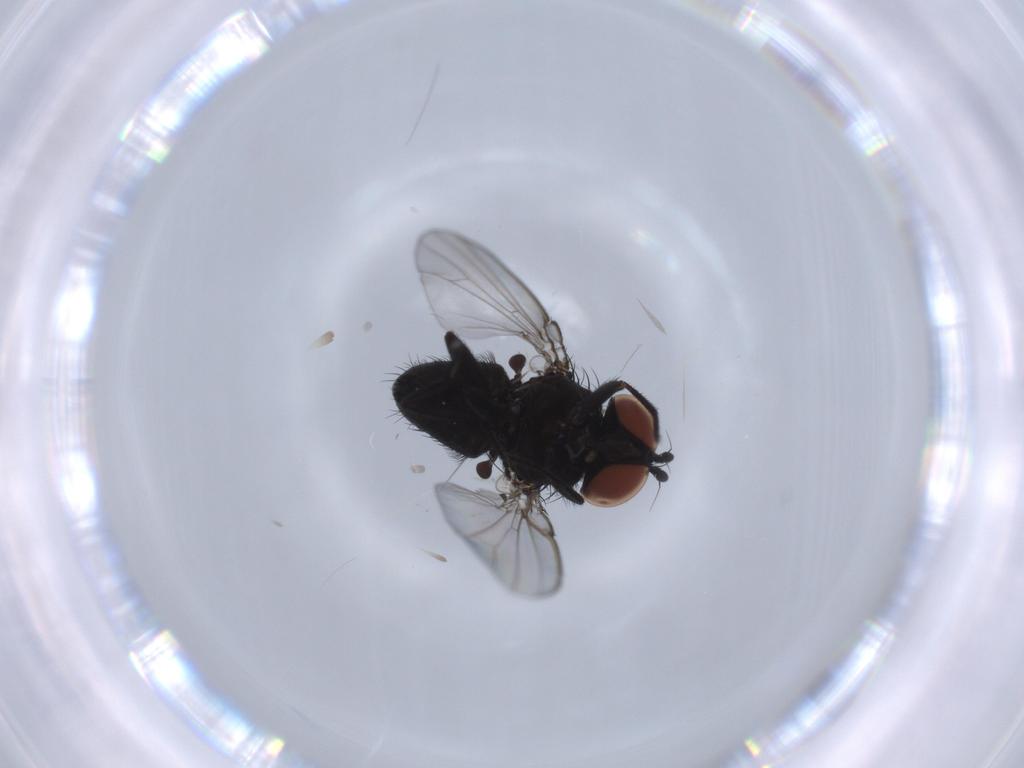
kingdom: Animalia
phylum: Arthropoda
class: Insecta
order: Diptera
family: Milichiidae
